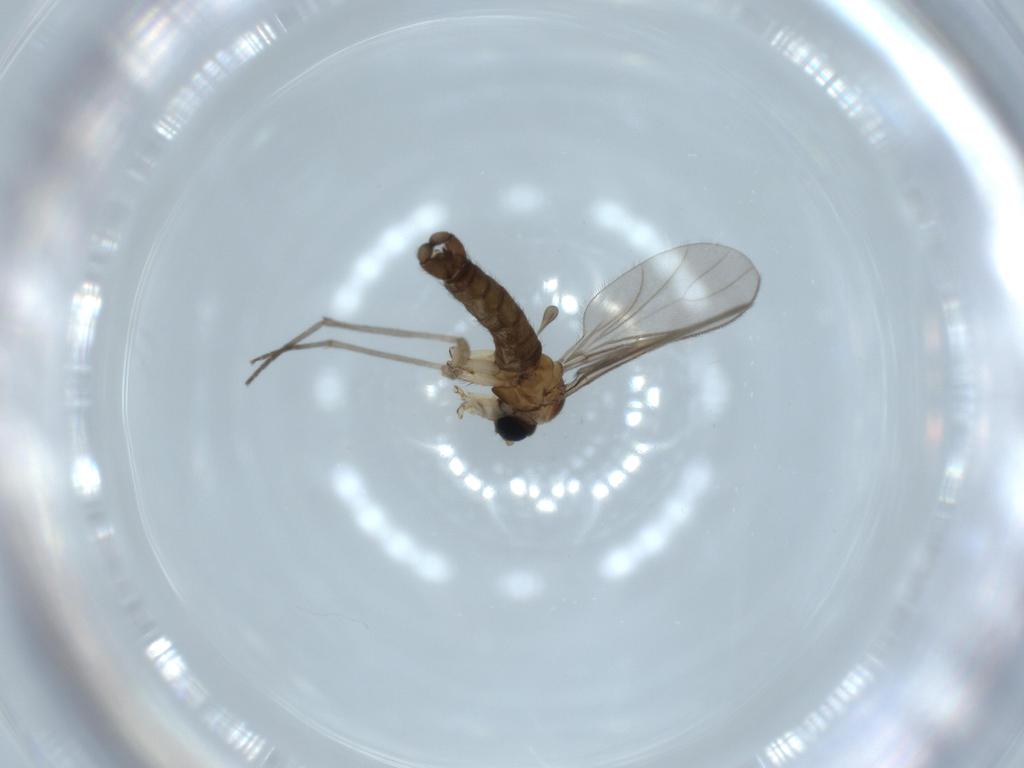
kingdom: Animalia
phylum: Arthropoda
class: Insecta
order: Diptera
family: Sciaridae
